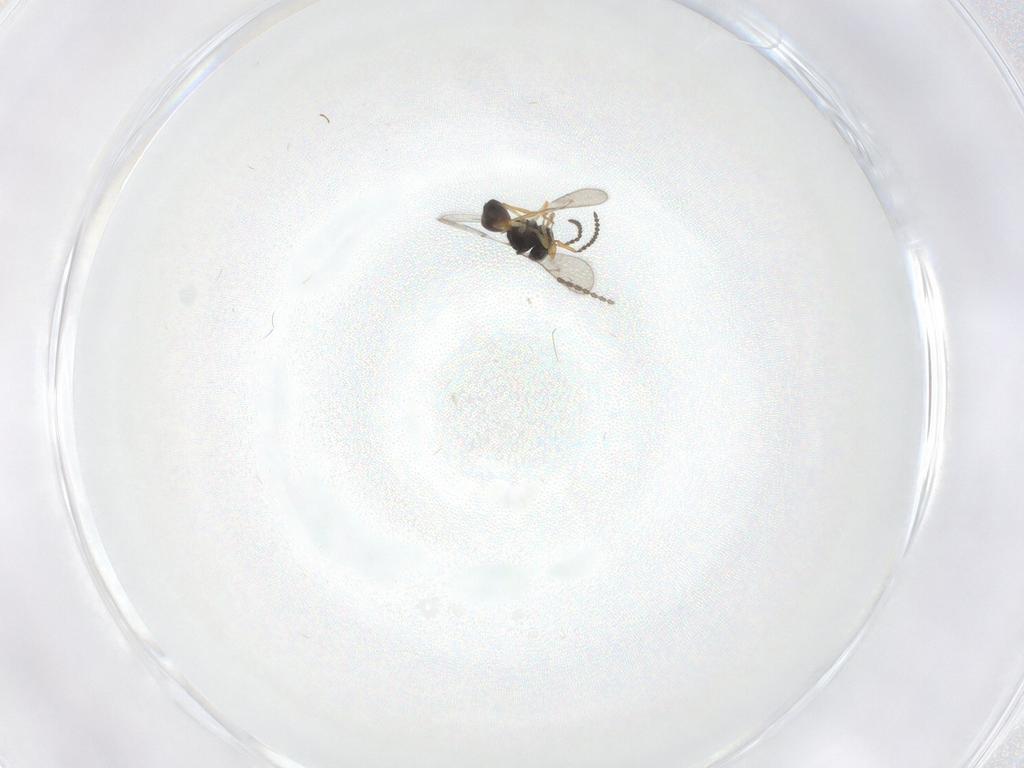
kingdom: Animalia
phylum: Arthropoda
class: Insecta
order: Hymenoptera
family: Scelionidae
